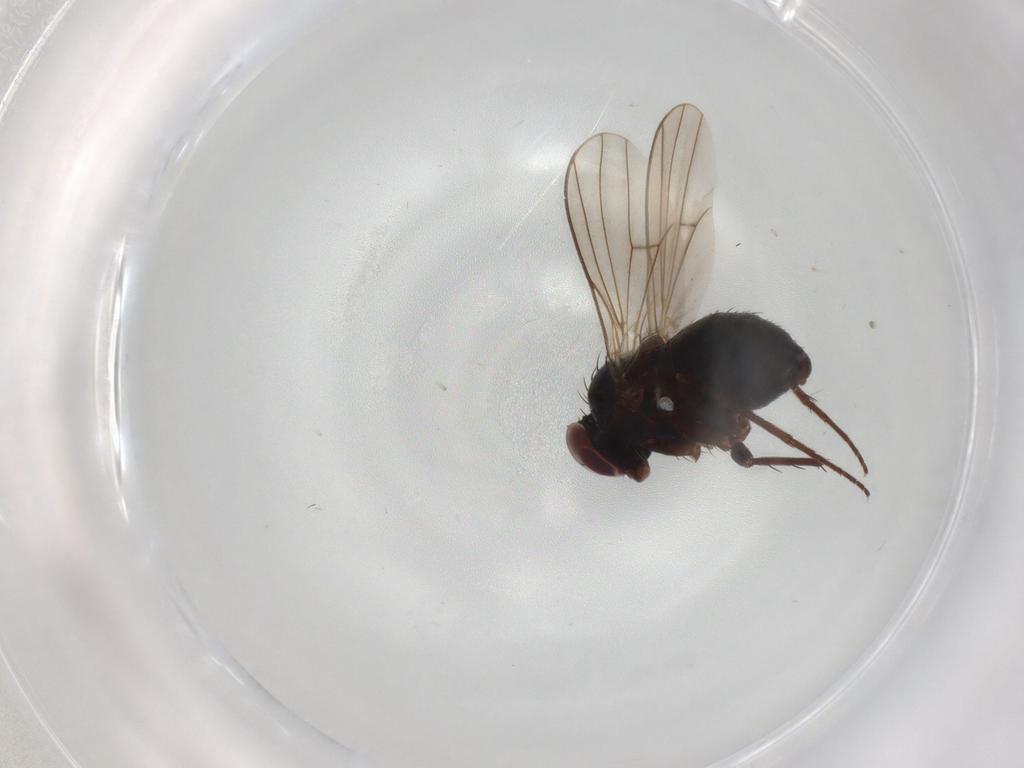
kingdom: Animalia
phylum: Arthropoda
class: Insecta
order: Diptera
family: Dolichopodidae
